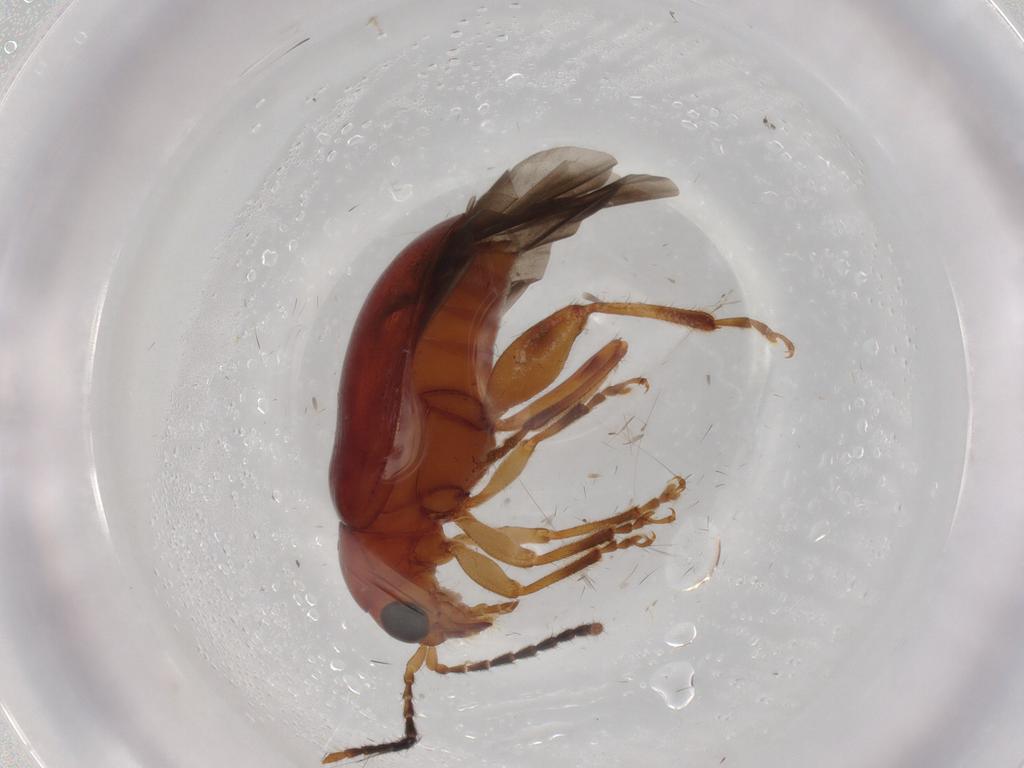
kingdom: Animalia
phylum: Arthropoda
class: Insecta
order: Coleoptera
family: Chrysomelidae
